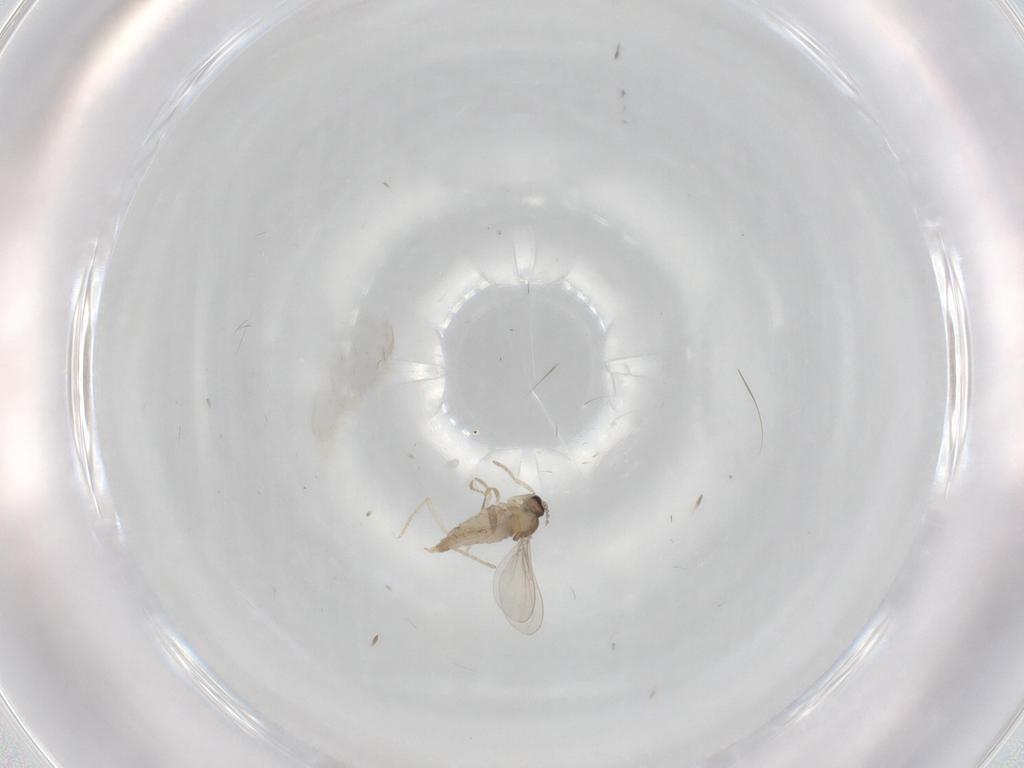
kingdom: Animalia
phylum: Arthropoda
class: Insecta
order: Diptera
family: Cecidomyiidae
